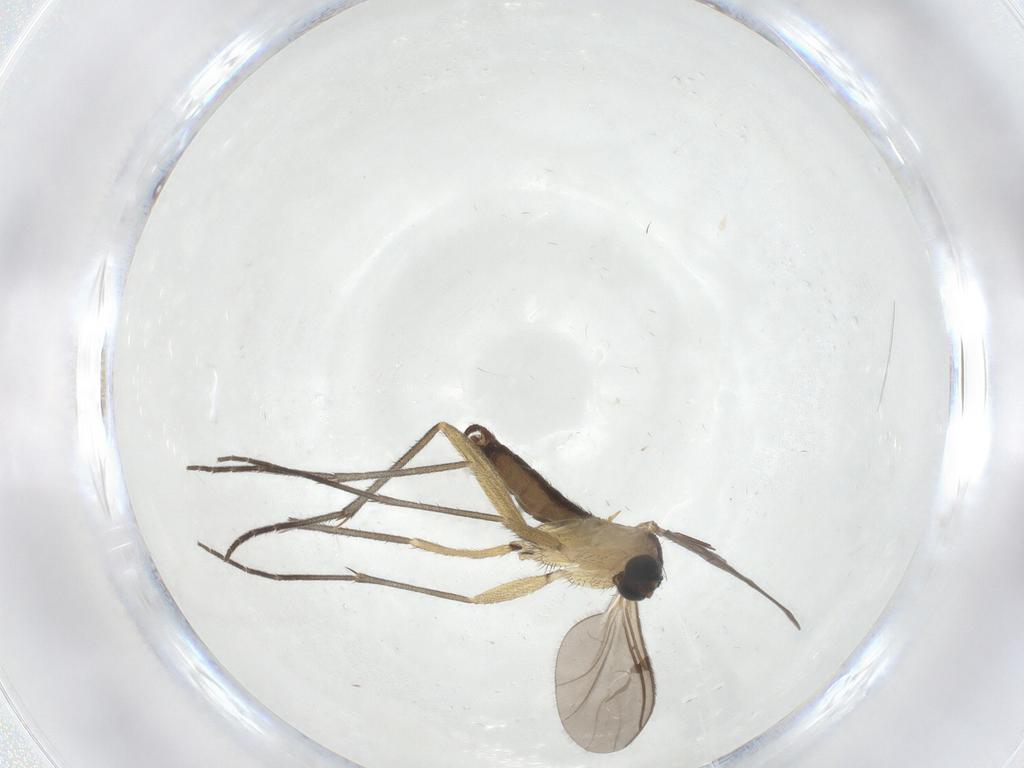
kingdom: Animalia
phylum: Arthropoda
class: Insecta
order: Diptera
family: Sciaridae
